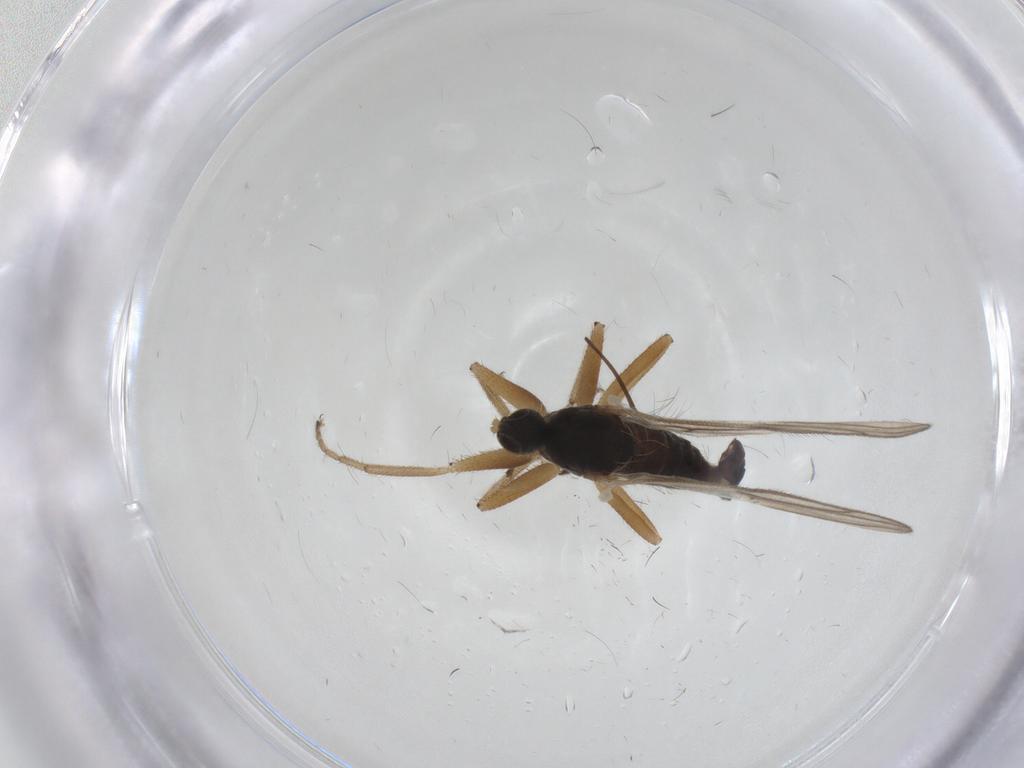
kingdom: Animalia
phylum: Arthropoda
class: Insecta
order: Diptera
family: Hybotidae
